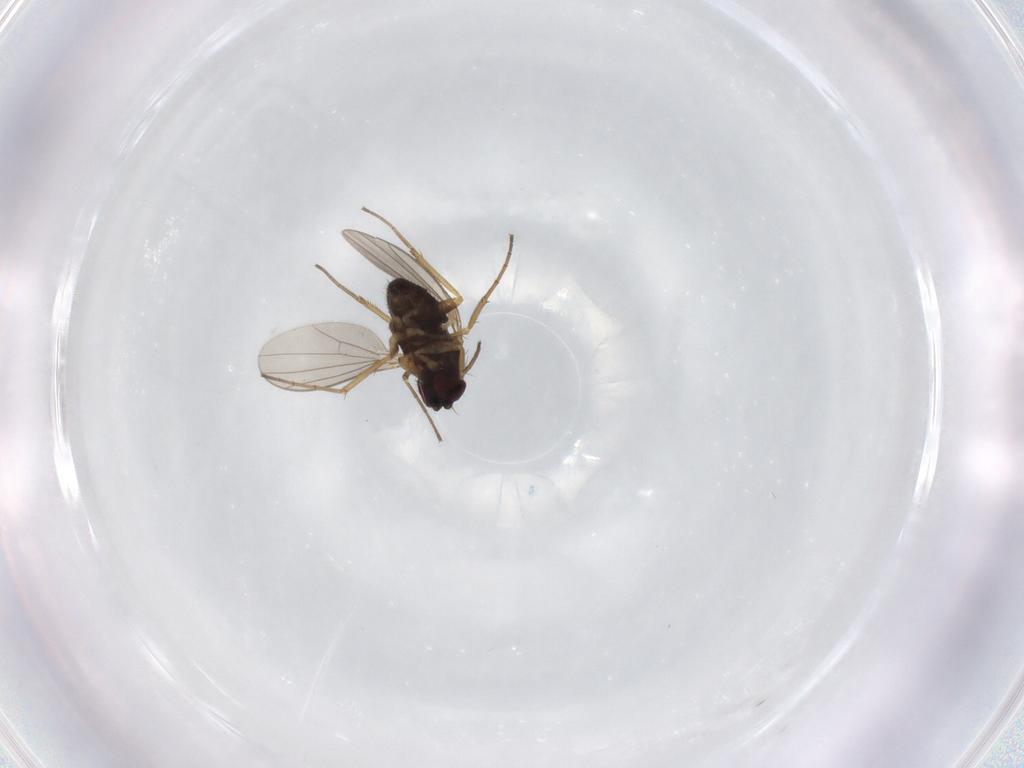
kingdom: Animalia
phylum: Arthropoda
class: Insecta
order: Diptera
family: Dolichopodidae
